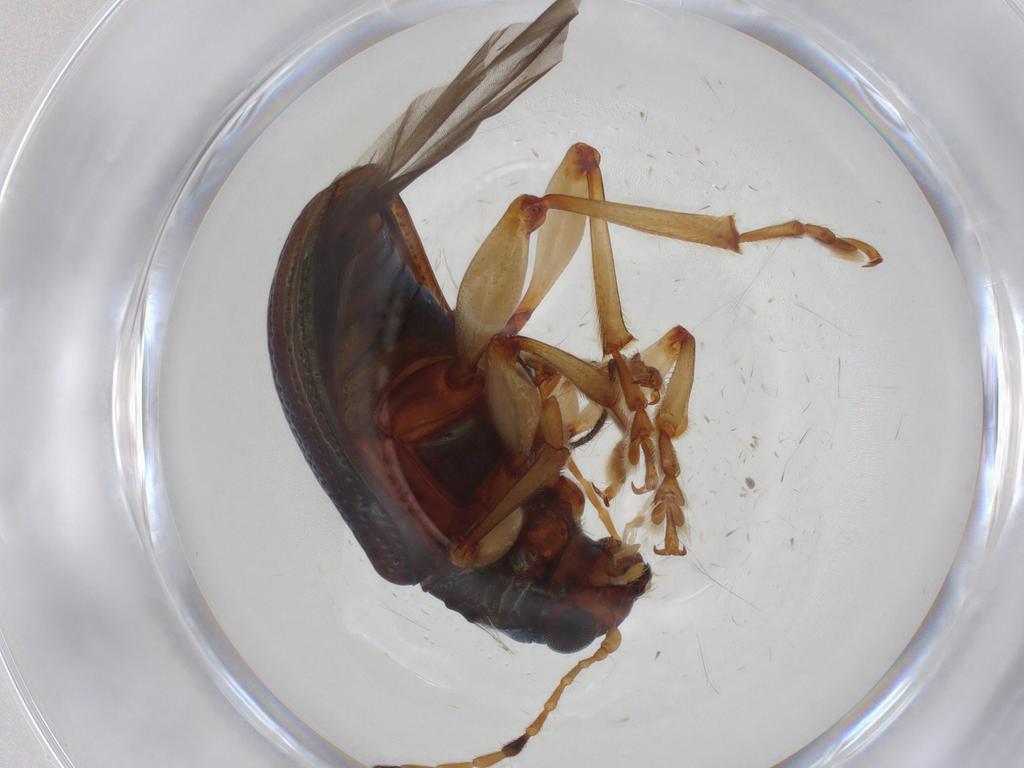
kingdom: Animalia
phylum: Arthropoda
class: Insecta
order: Coleoptera
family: Chrysomelidae
